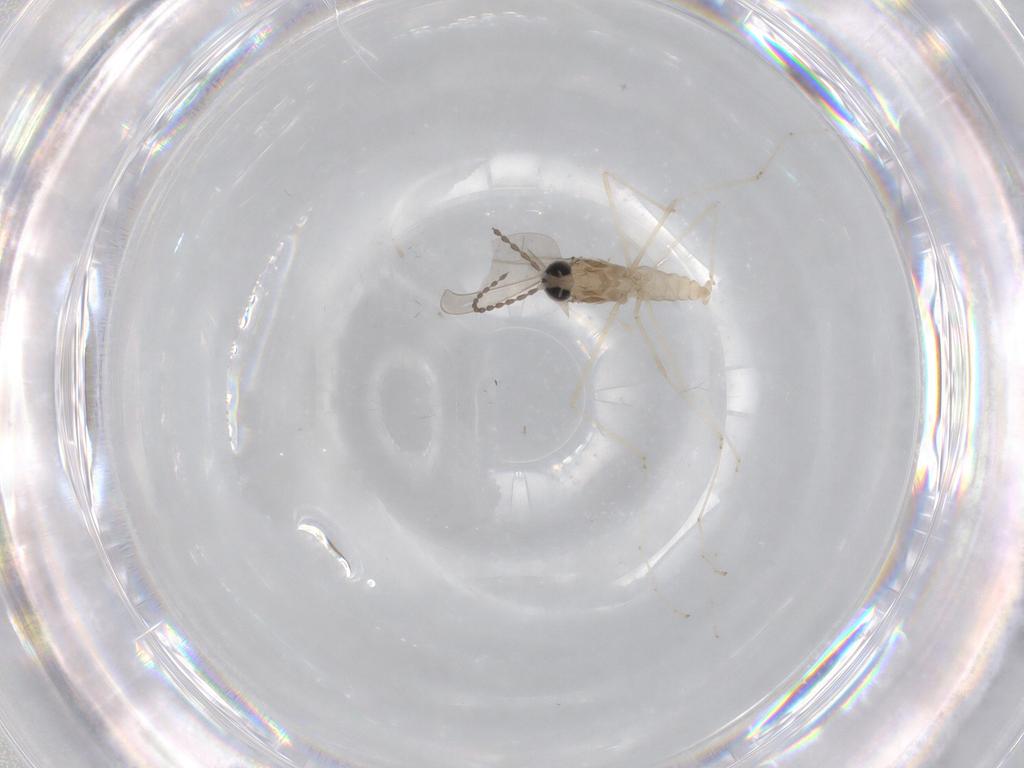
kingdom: Animalia
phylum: Arthropoda
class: Insecta
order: Diptera
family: Cecidomyiidae
